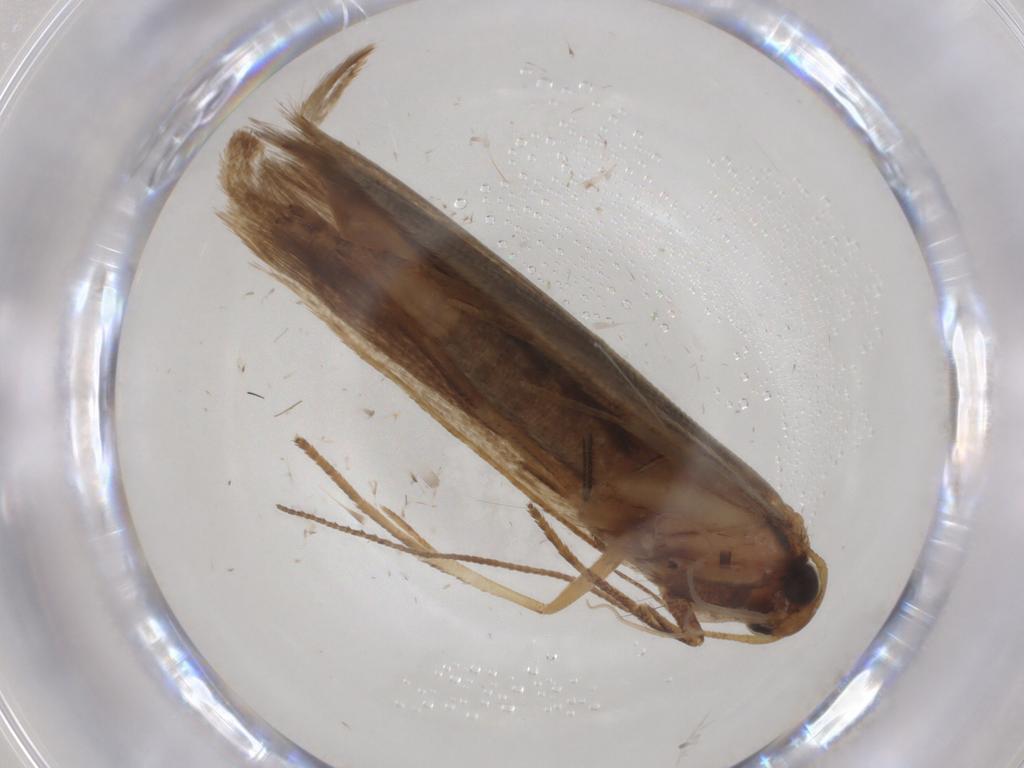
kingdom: Animalia
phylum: Arthropoda
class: Insecta
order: Lepidoptera
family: Gelechiidae
